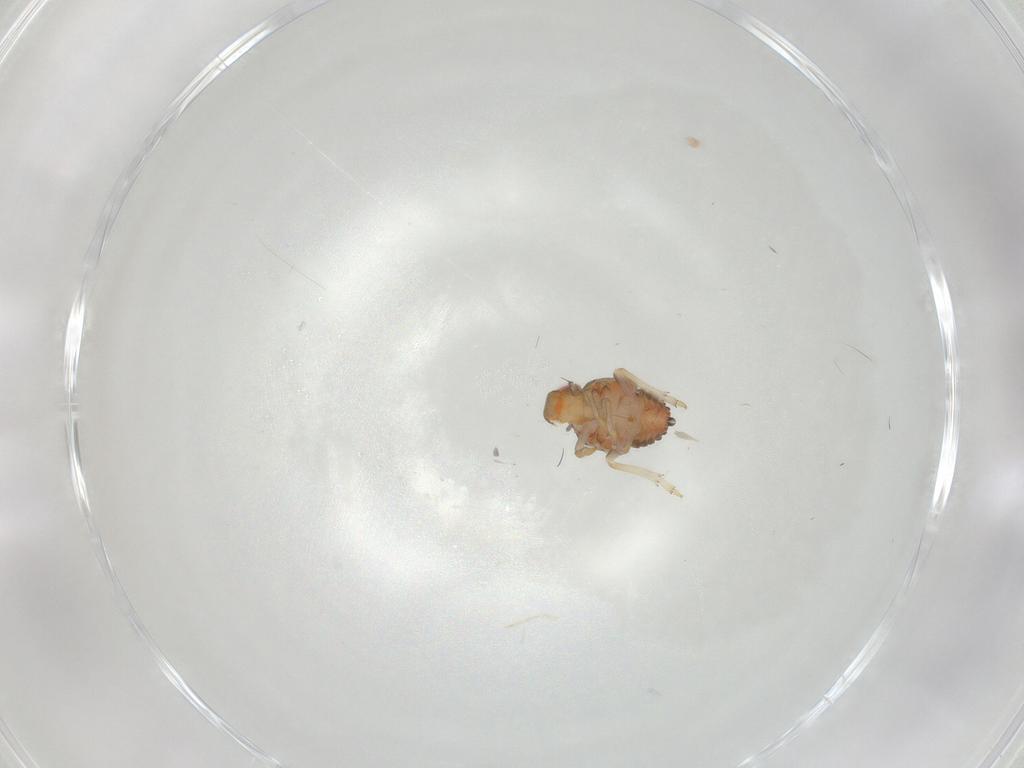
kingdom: Animalia
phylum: Arthropoda
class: Insecta
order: Hemiptera
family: Issidae
